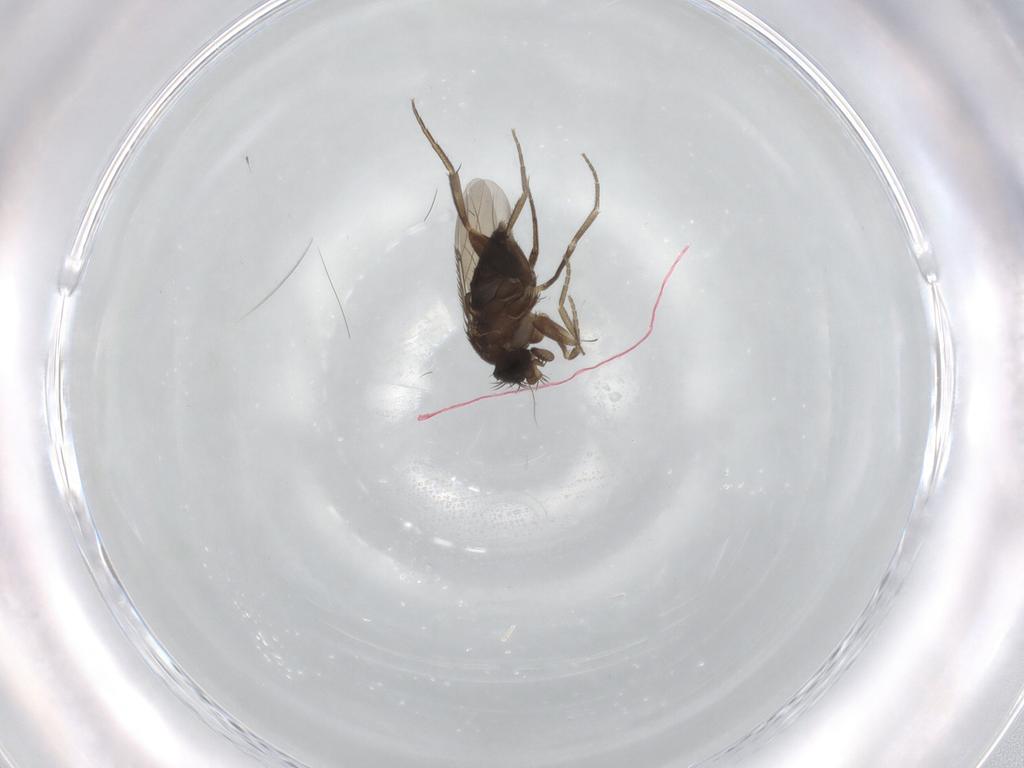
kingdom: Animalia
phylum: Arthropoda
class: Insecta
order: Diptera
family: Phoridae
